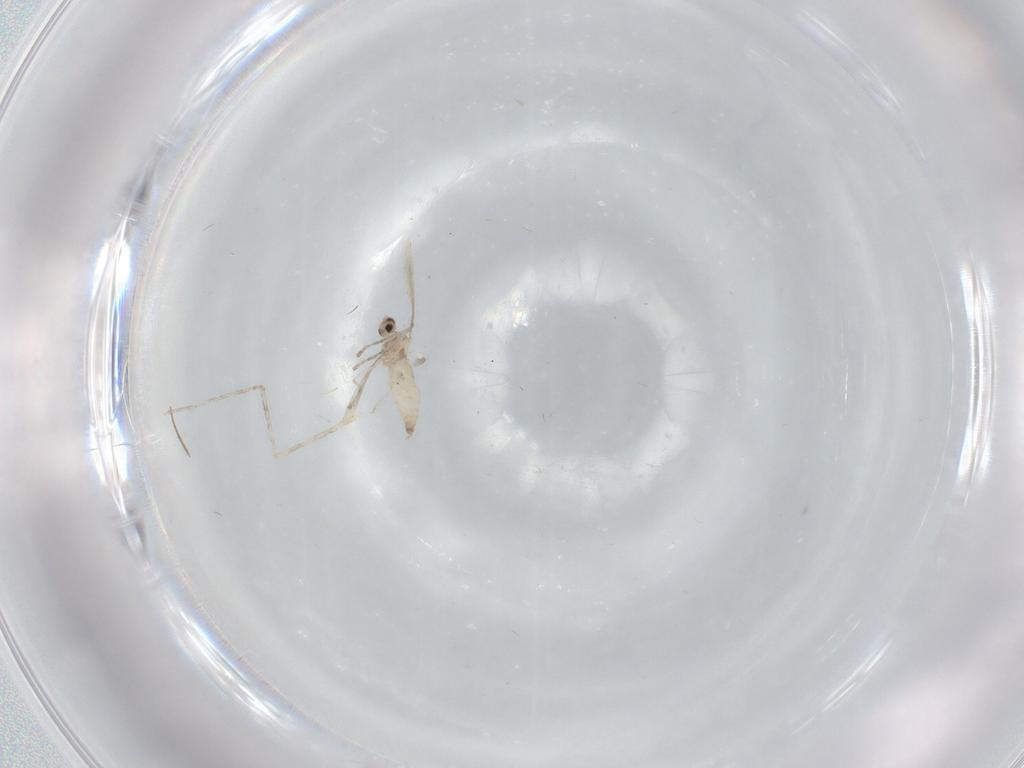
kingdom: Animalia
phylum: Arthropoda
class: Insecta
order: Diptera
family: Cecidomyiidae
